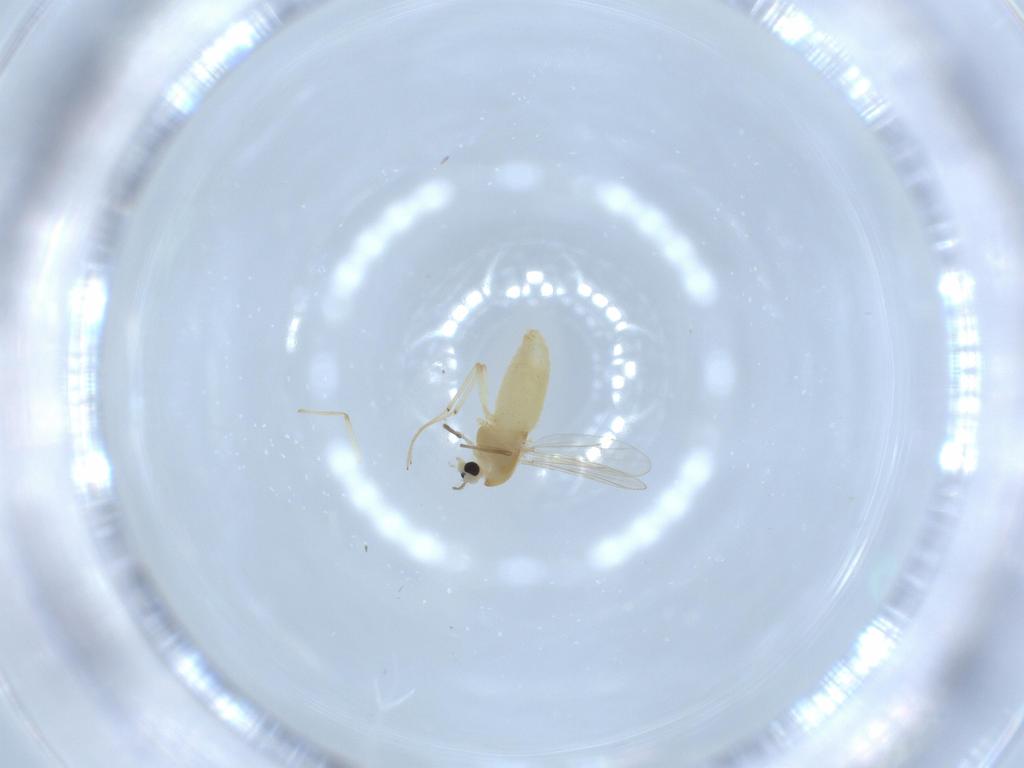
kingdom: Animalia
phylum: Arthropoda
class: Insecta
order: Diptera
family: Chironomidae
